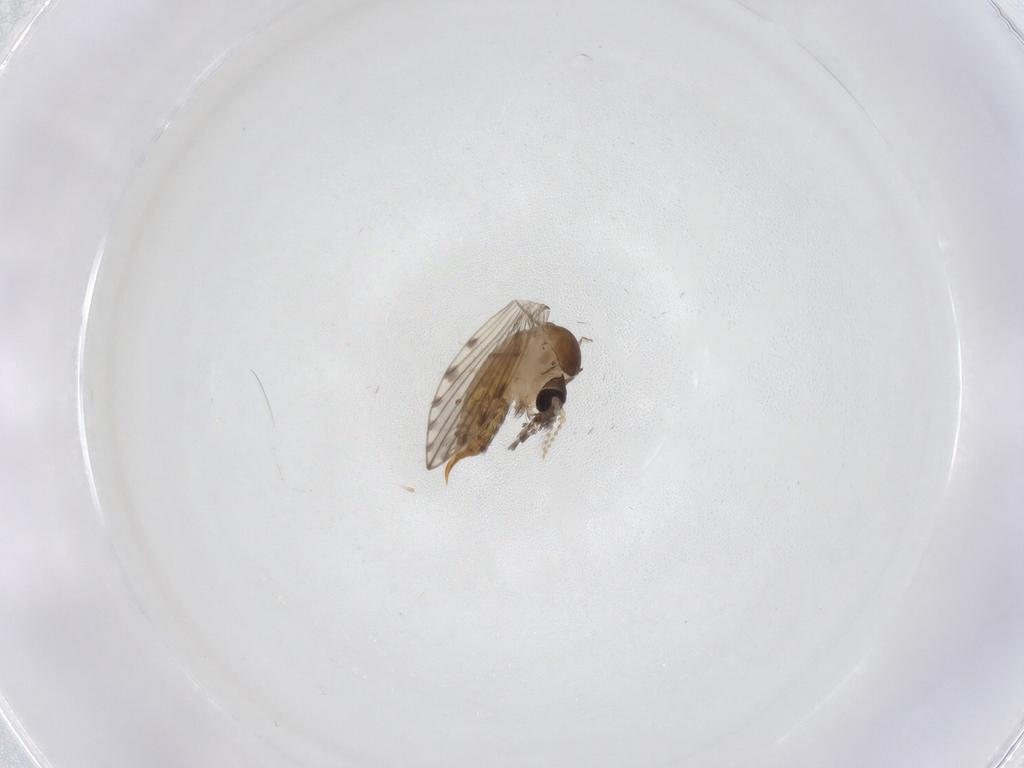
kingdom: Animalia
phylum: Arthropoda
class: Insecta
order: Diptera
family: Psychodidae
